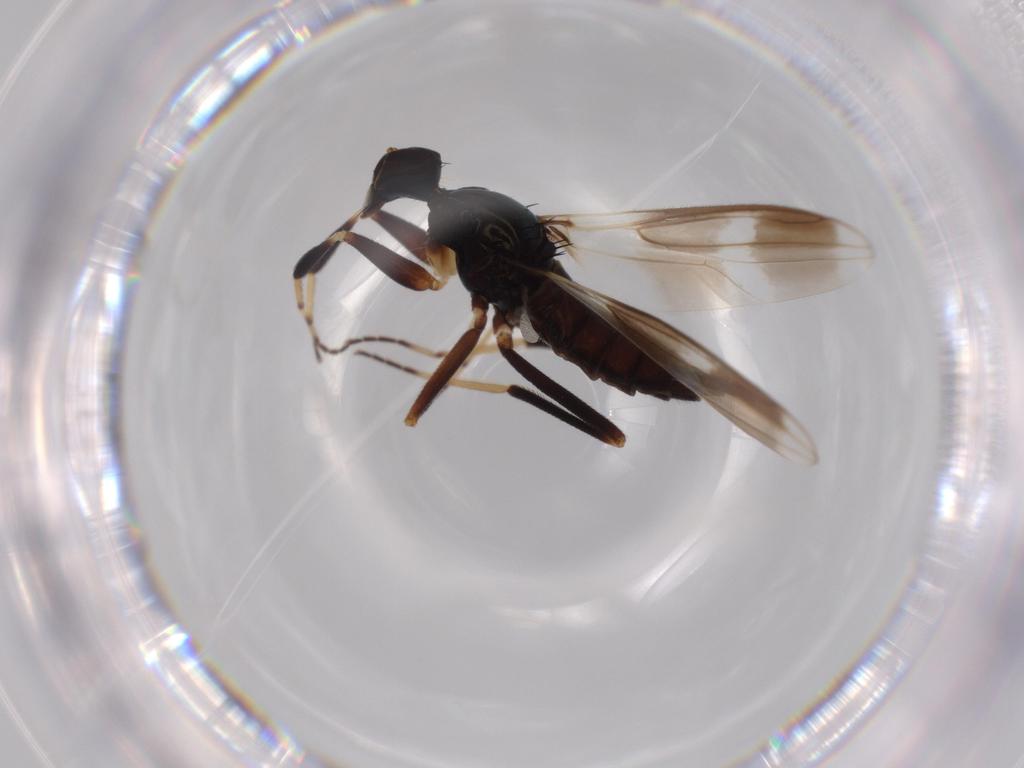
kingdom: Animalia
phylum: Arthropoda
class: Insecta
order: Diptera
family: Hybotidae
